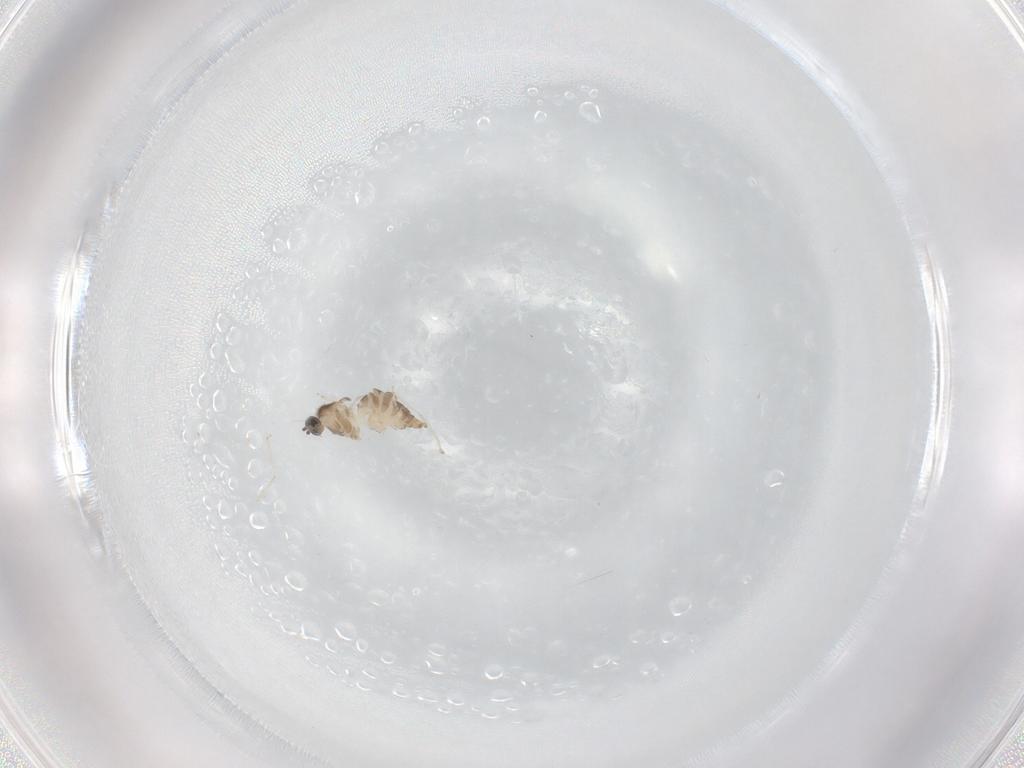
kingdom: Animalia
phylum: Arthropoda
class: Insecta
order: Diptera
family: Cecidomyiidae
